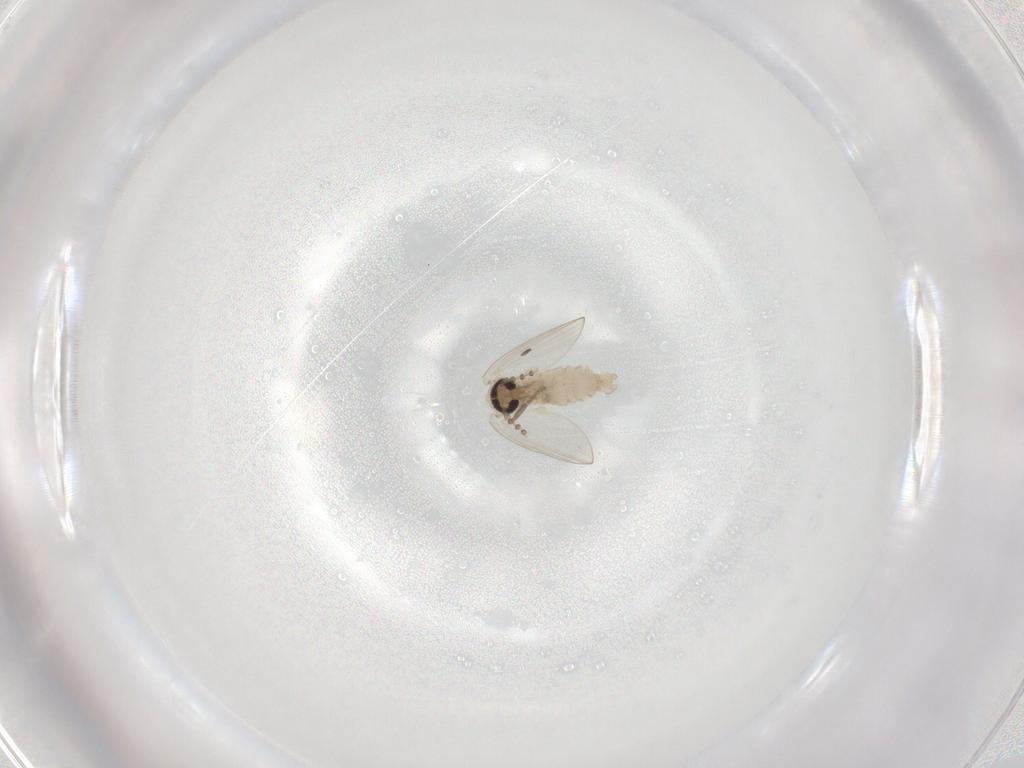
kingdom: Animalia
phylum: Arthropoda
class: Insecta
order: Diptera
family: Psychodidae
